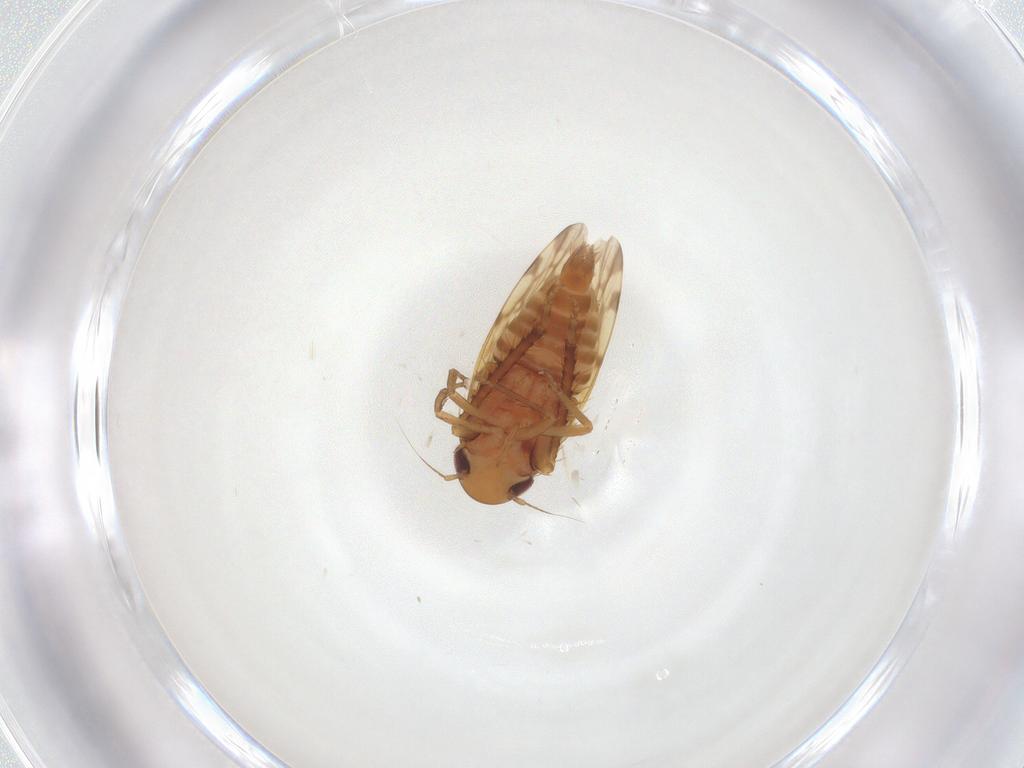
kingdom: Animalia
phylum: Arthropoda
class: Insecta
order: Hemiptera
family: Cicadellidae
